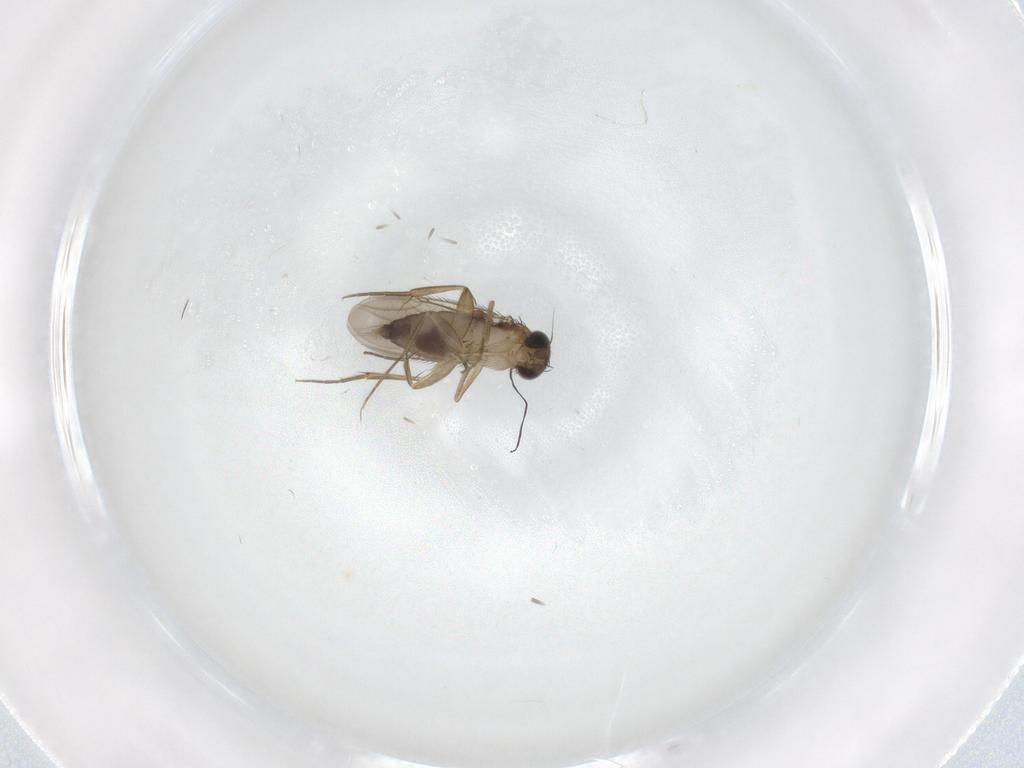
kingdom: Animalia
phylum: Arthropoda
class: Insecta
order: Diptera
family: Phoridae
